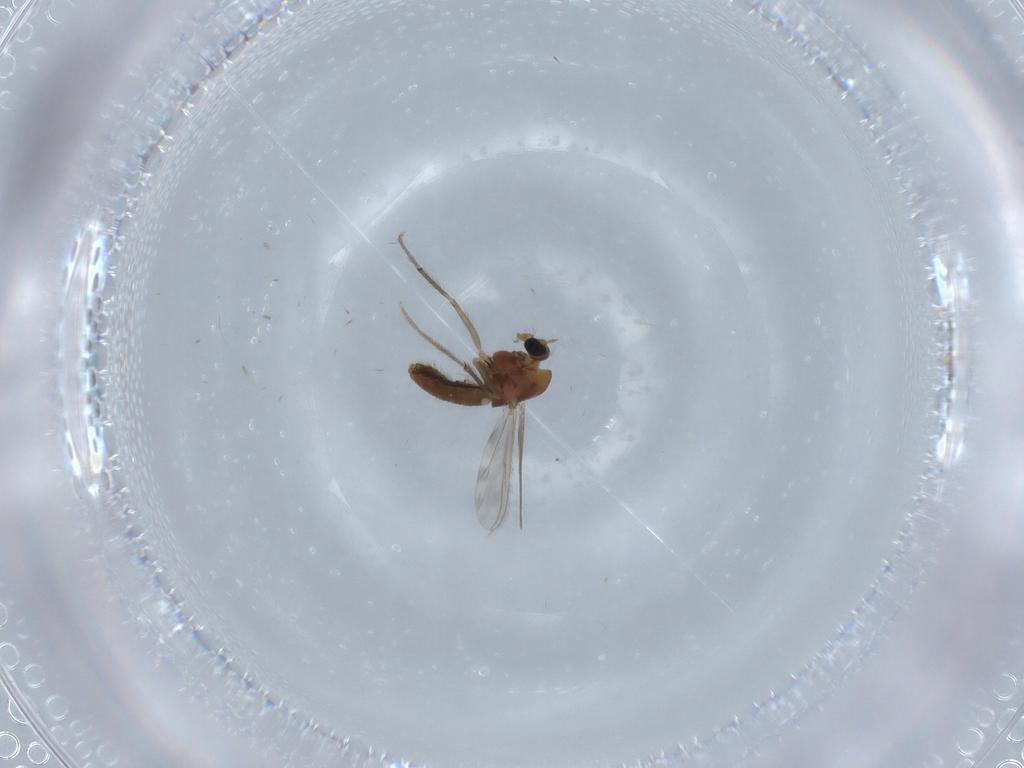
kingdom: Animalia
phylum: Arthropoda
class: Insecta
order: Diptera
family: Chironomidae
